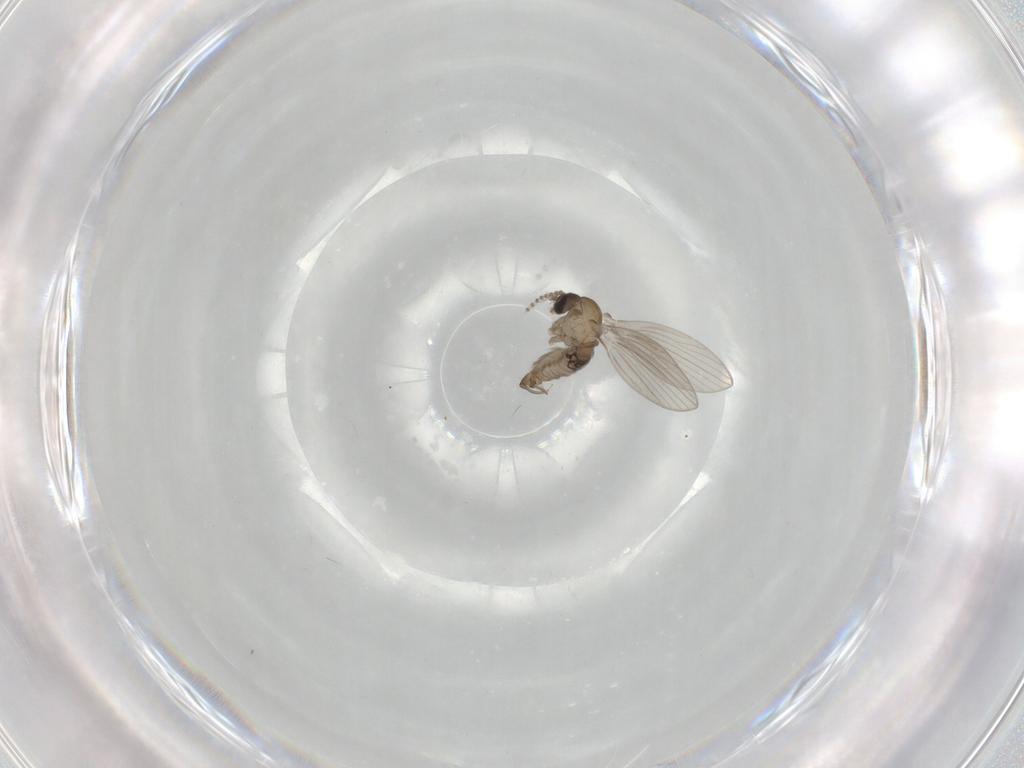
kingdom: Animalia
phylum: Arthropoda
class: Insecta
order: Diptera
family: Psychodidae
